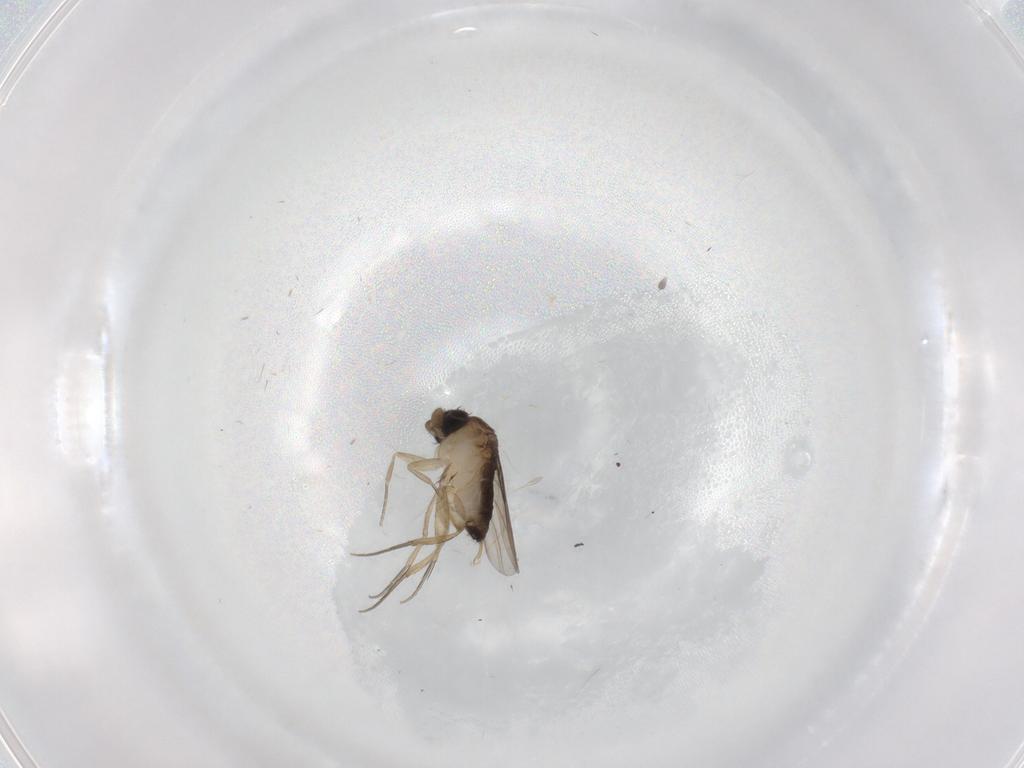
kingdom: Animalia
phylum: Arthropoda
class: Insecta
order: Diptera
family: Phoridae
